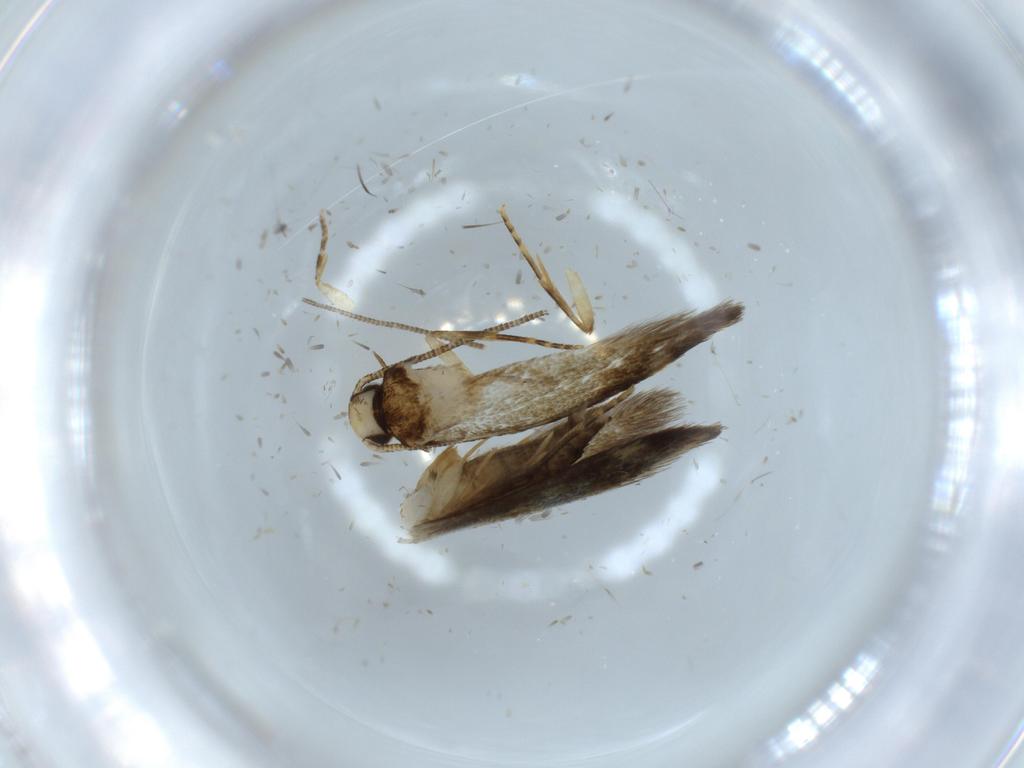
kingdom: Animalia
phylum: Arthropoda
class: Insecta
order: Lepidoptera
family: Tineidae
